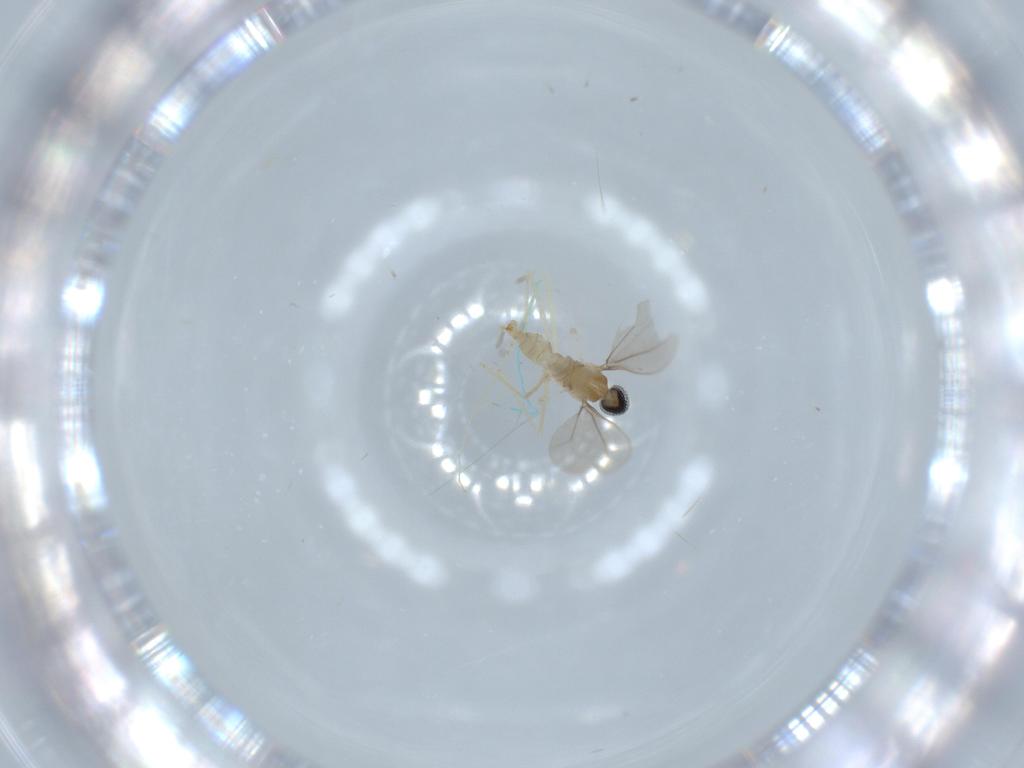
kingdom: Animalia
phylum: Arthropoda
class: Insecta
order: Diptera
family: Cecidomyiidae
